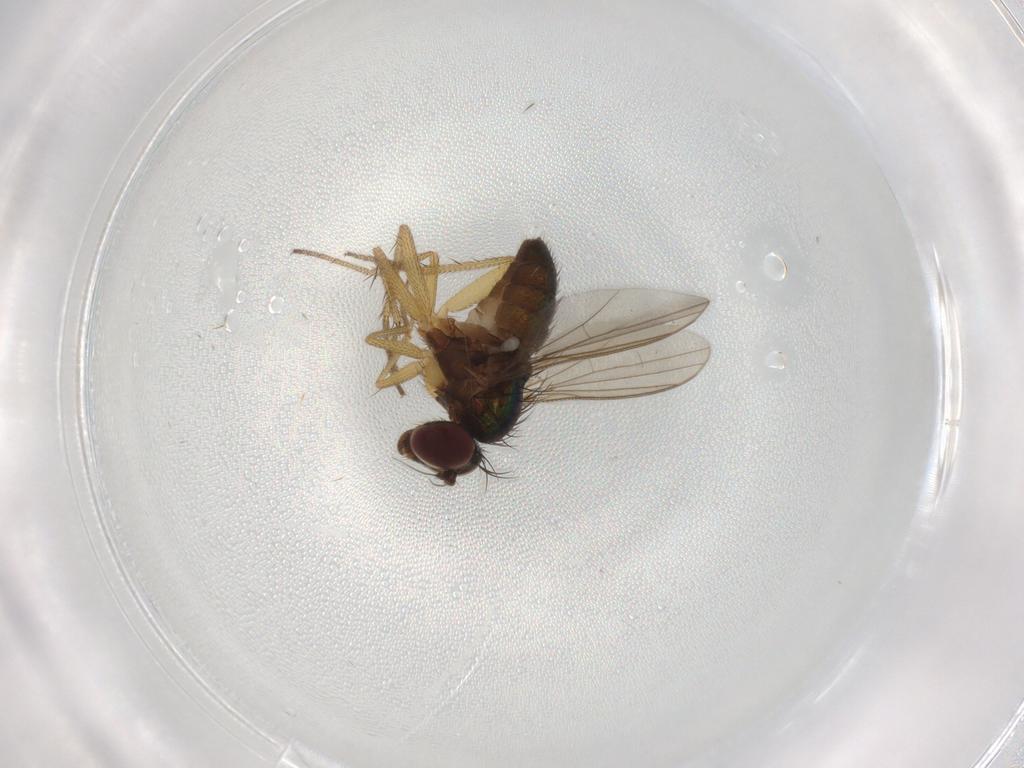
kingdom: Animalia
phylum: Arthropoda
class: Insecta
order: Diptera
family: Dolichopodidae
